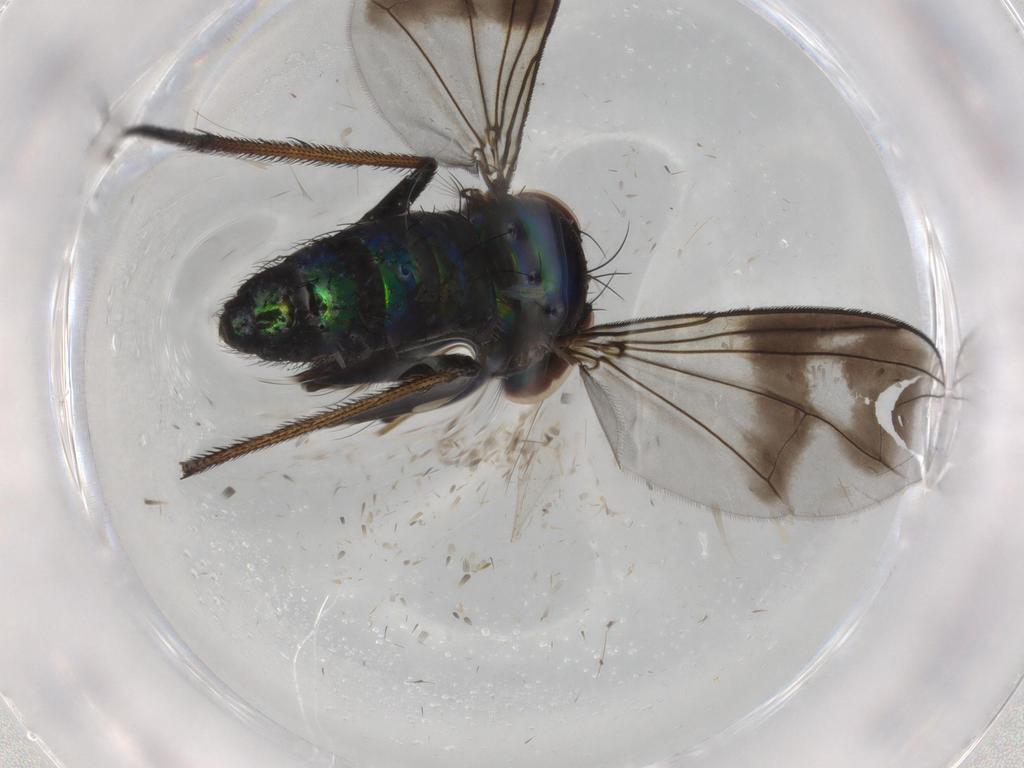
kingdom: Animalia
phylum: Arthropoda
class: Insecta
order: Diptera
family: Dolichopodidae
